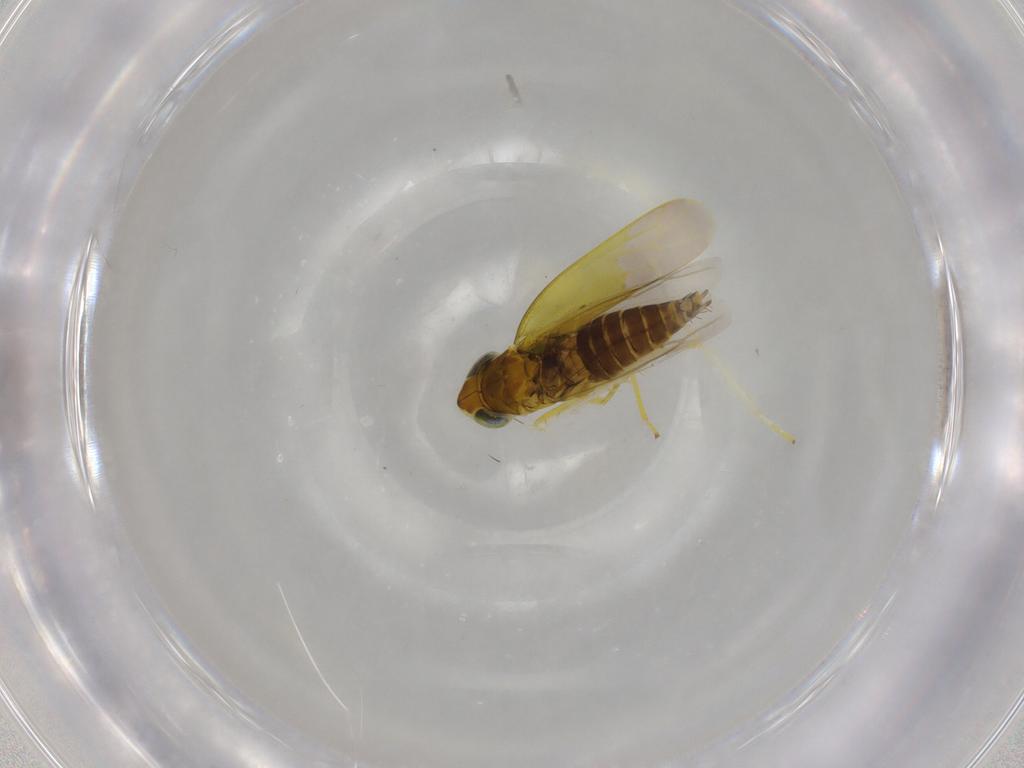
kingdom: Animalia
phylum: Arthropoda
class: Insecta
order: Hemiptera
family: Cicadellidae
